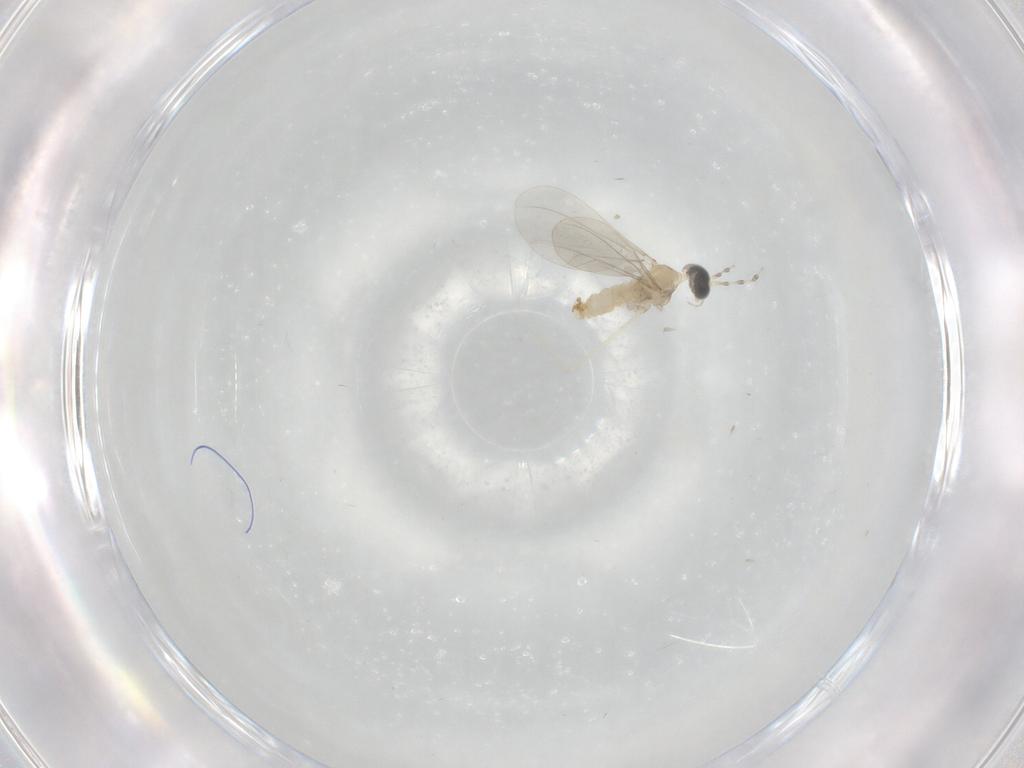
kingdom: Animalia
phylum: Arthropoda
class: Insecta
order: Diptera
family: Cecidomyiidae
